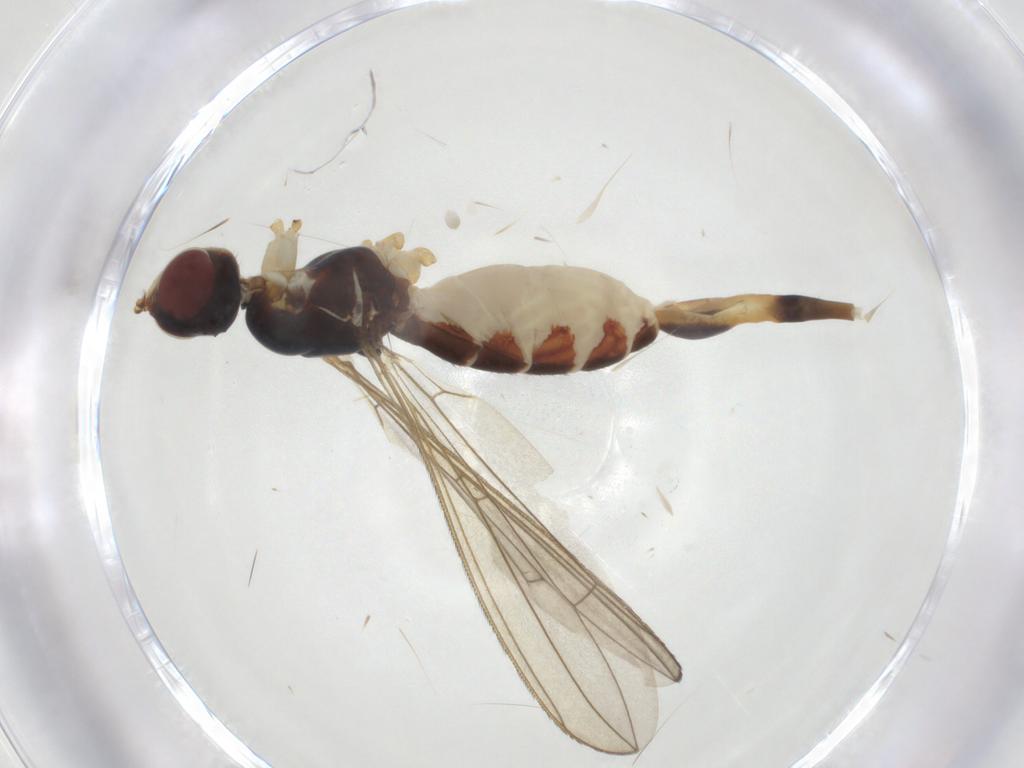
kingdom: Animalia
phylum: Arthropoda
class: Insecta
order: Diptera
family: Micropezidae
